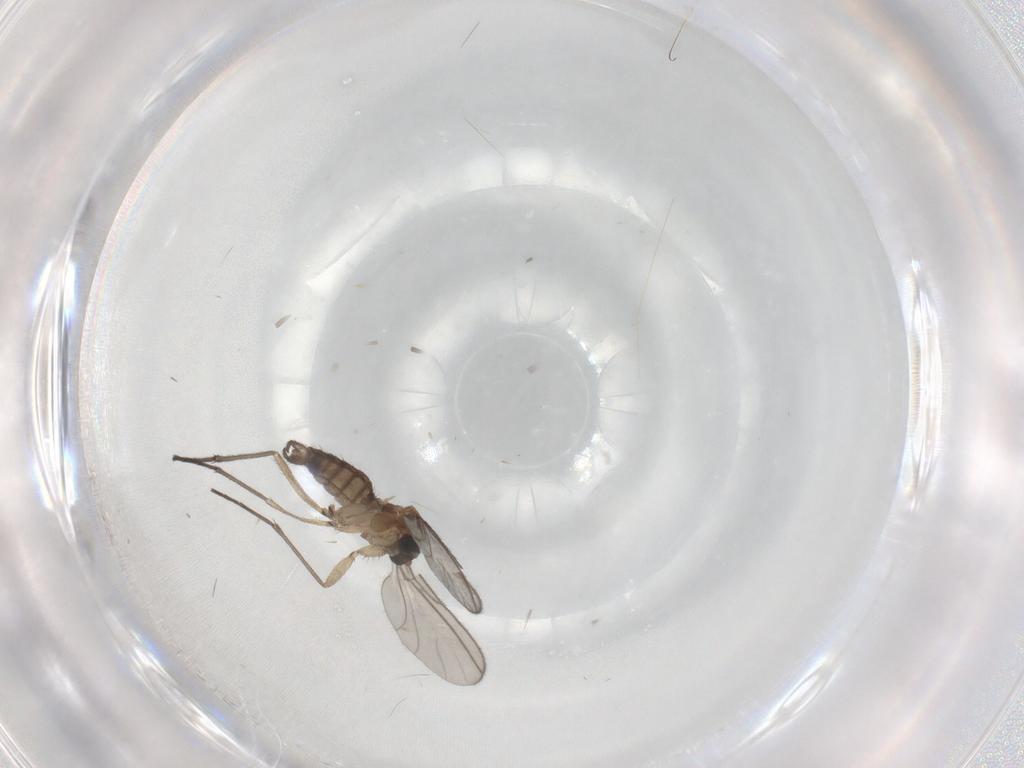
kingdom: Animalia
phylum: Arthropoda
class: Insecta
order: Diptera
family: Sciaridae
